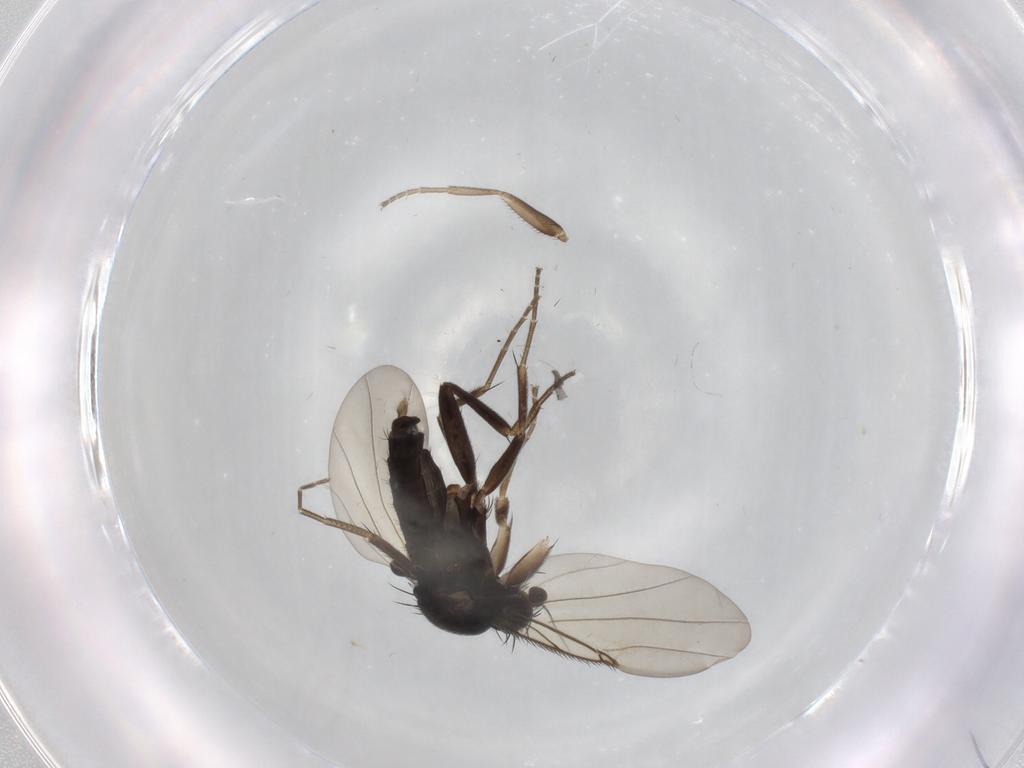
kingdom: Animalia
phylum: Arthropoda
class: Insecta
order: Diptera
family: Phoridae
